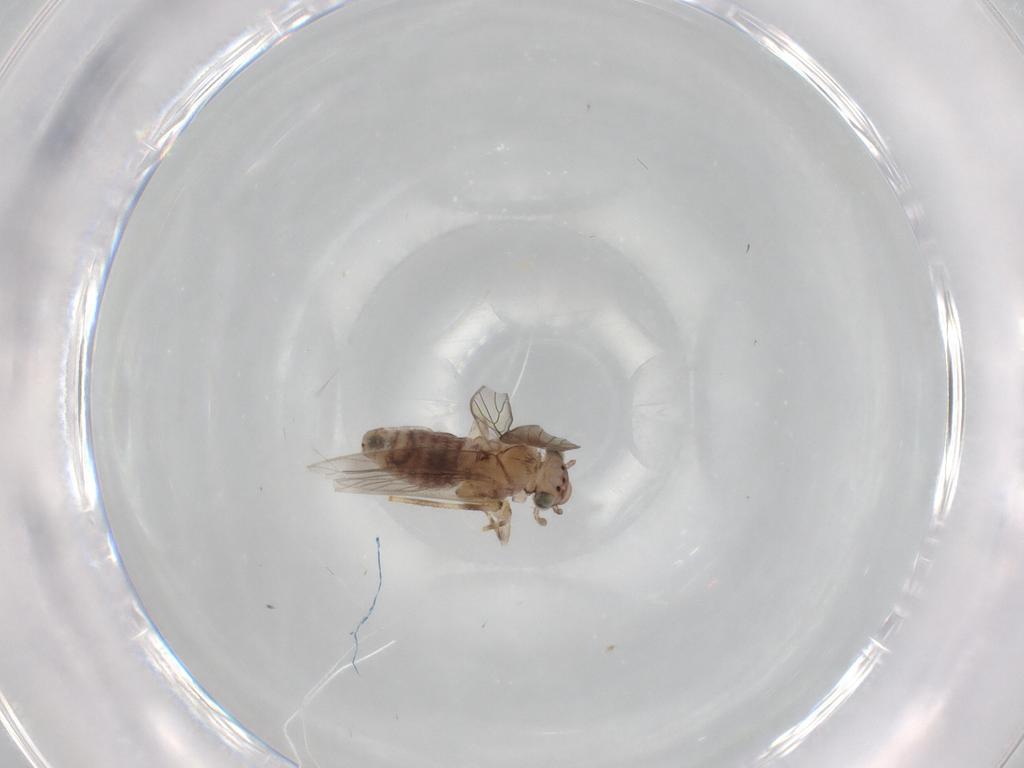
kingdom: Animalia
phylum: Arthropoda
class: Insecta
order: Psocodea
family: Lepidopsocidae
